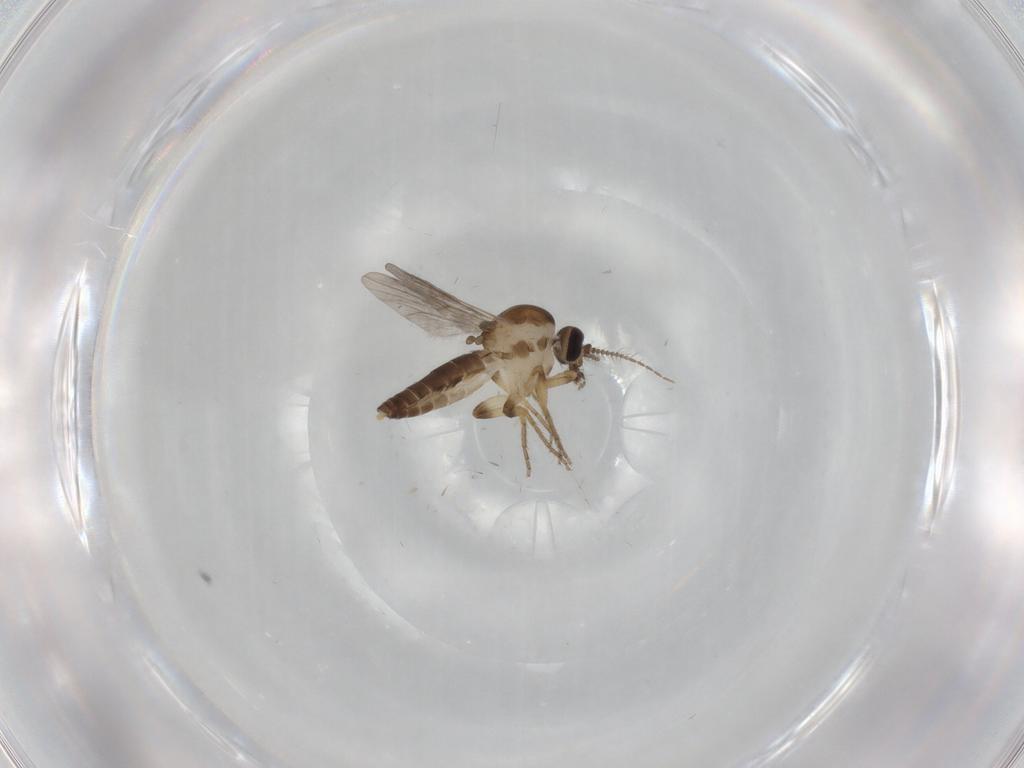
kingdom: Animalia
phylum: Arthropoda
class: Insecta
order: Diptera
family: Ceratopogonidae
